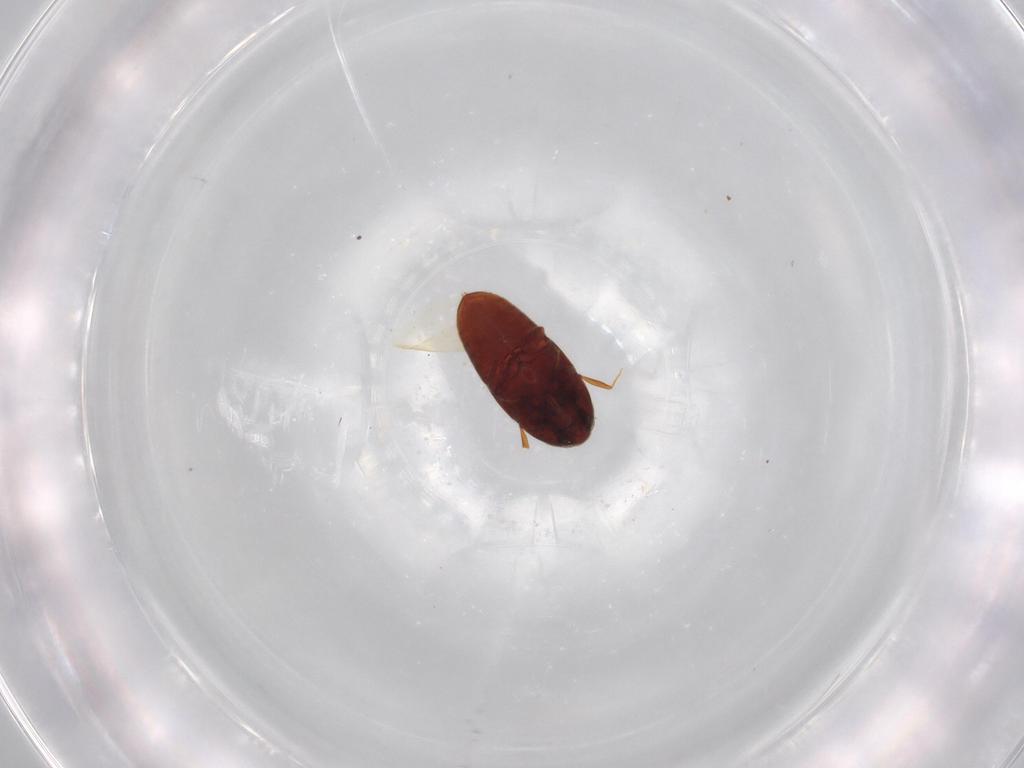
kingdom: Animalia
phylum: Arthropoda
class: Insecta
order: Coleoptera
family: Throscidae
